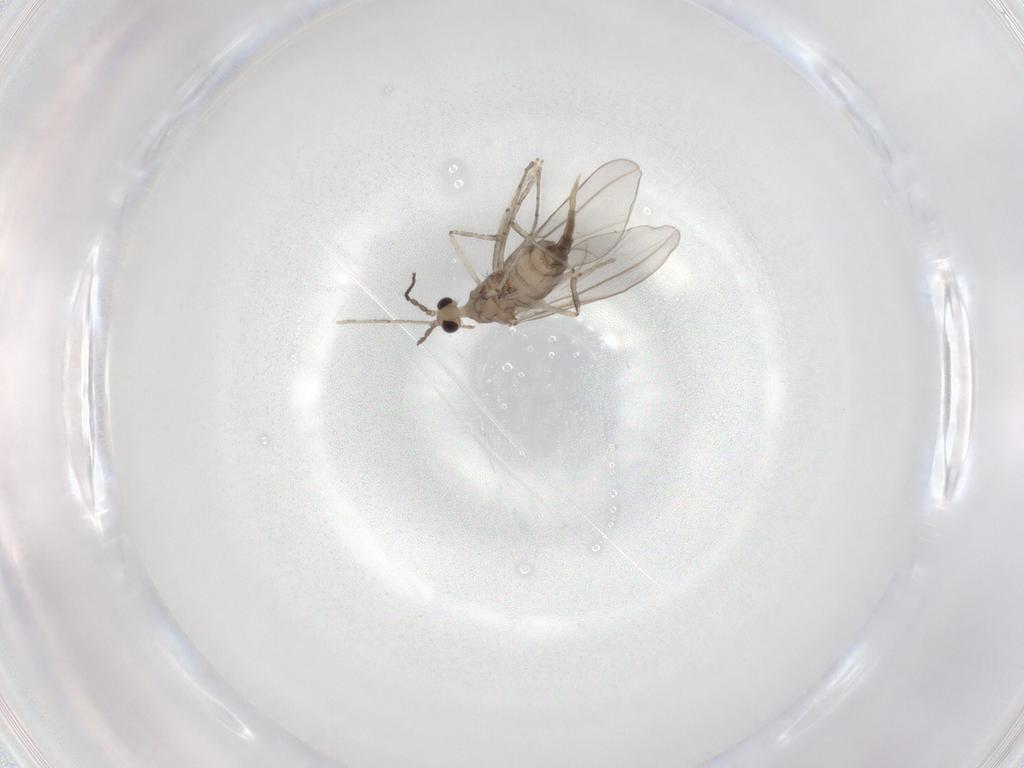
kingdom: Animalia
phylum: Arthropoda
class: Insecta
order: Diptera
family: Cecidomyiidae
